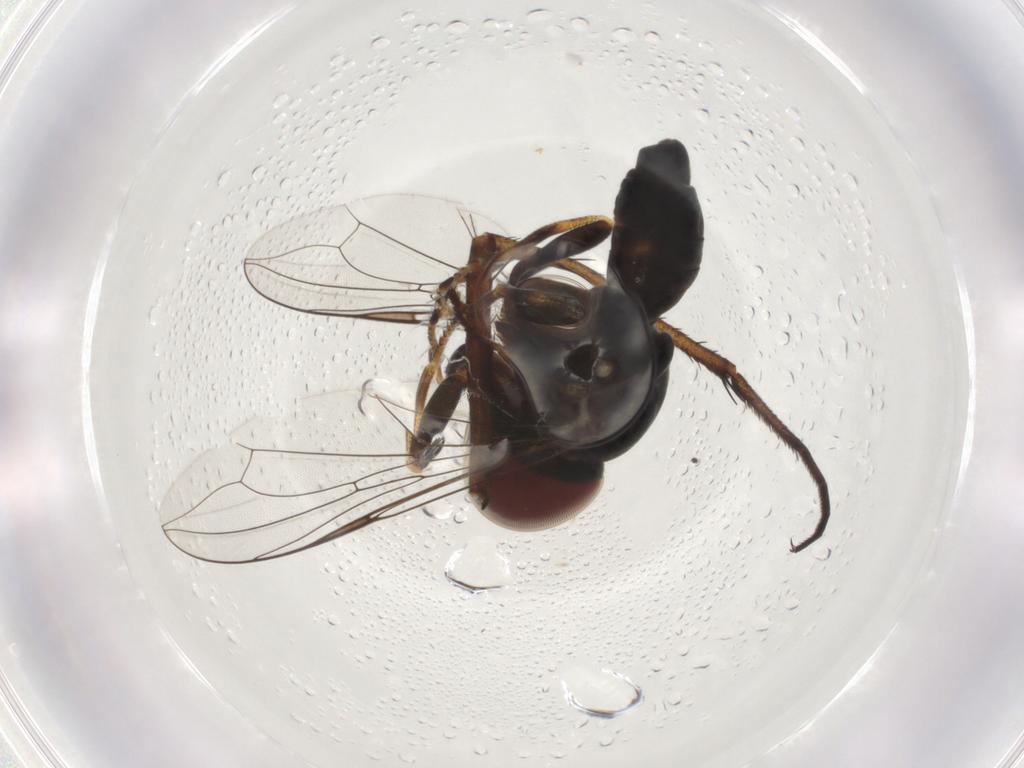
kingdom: Animalia
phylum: Arthropoda
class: Insecta
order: Diptera
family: Pipunculidae
